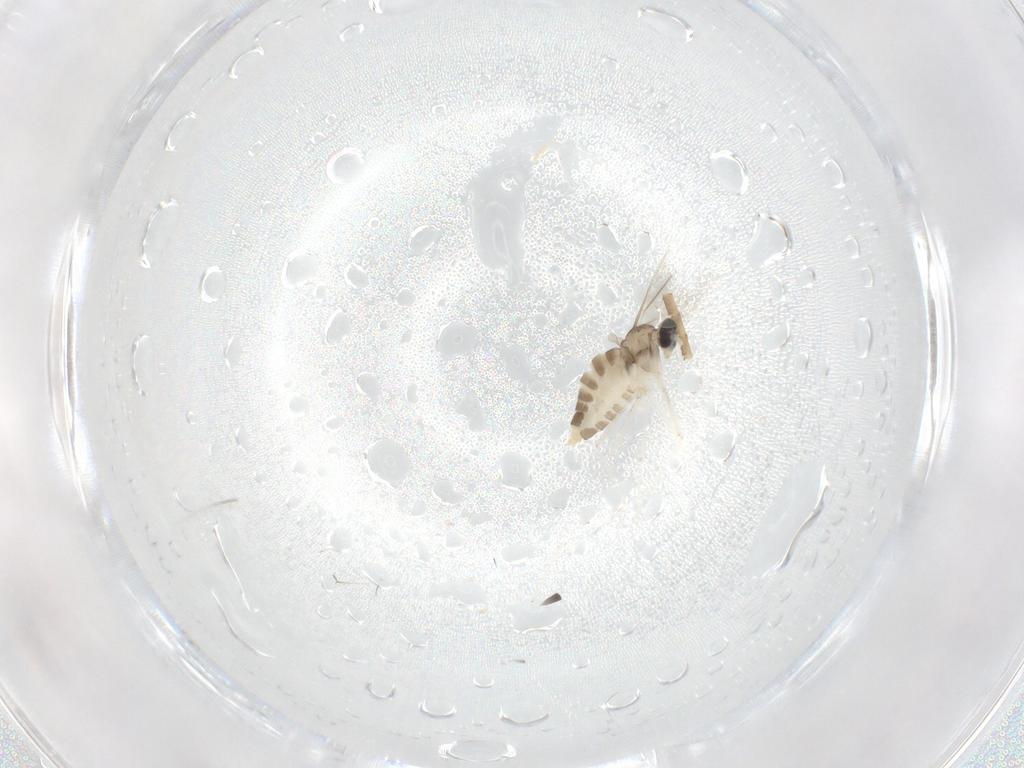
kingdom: Animalia
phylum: Arthropoda
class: Insecta
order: Diptera
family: Cecidomyiidae
